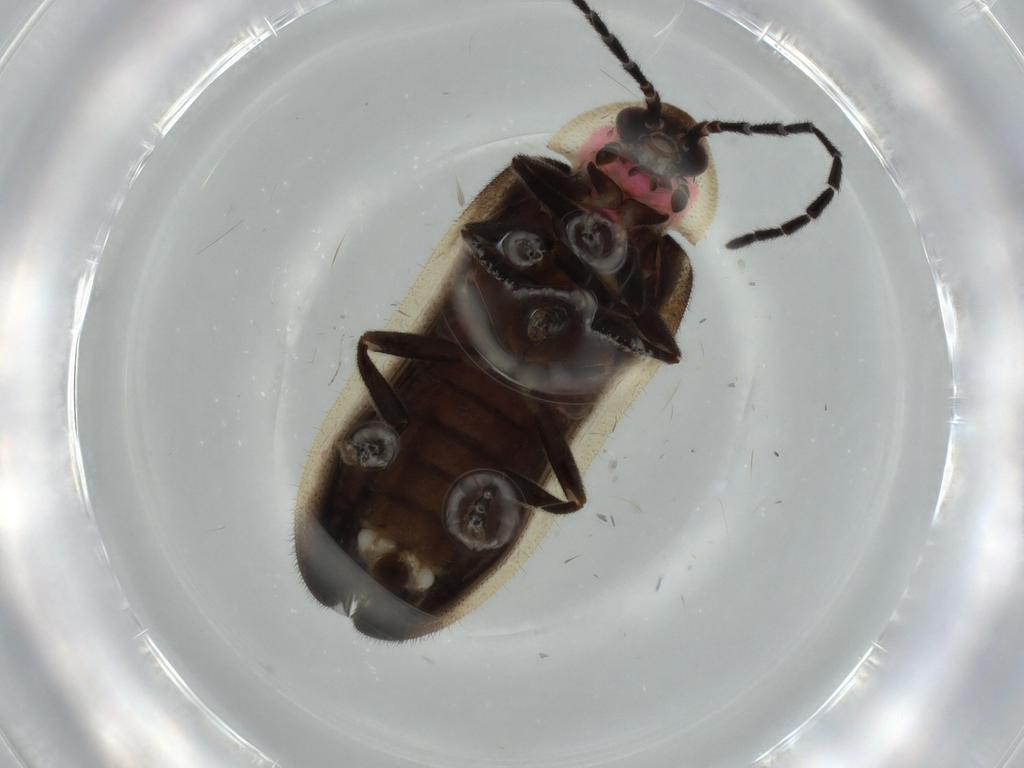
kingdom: Animalia
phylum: Arthropoda
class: Insecta
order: Coleoptera
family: Lampyridae
